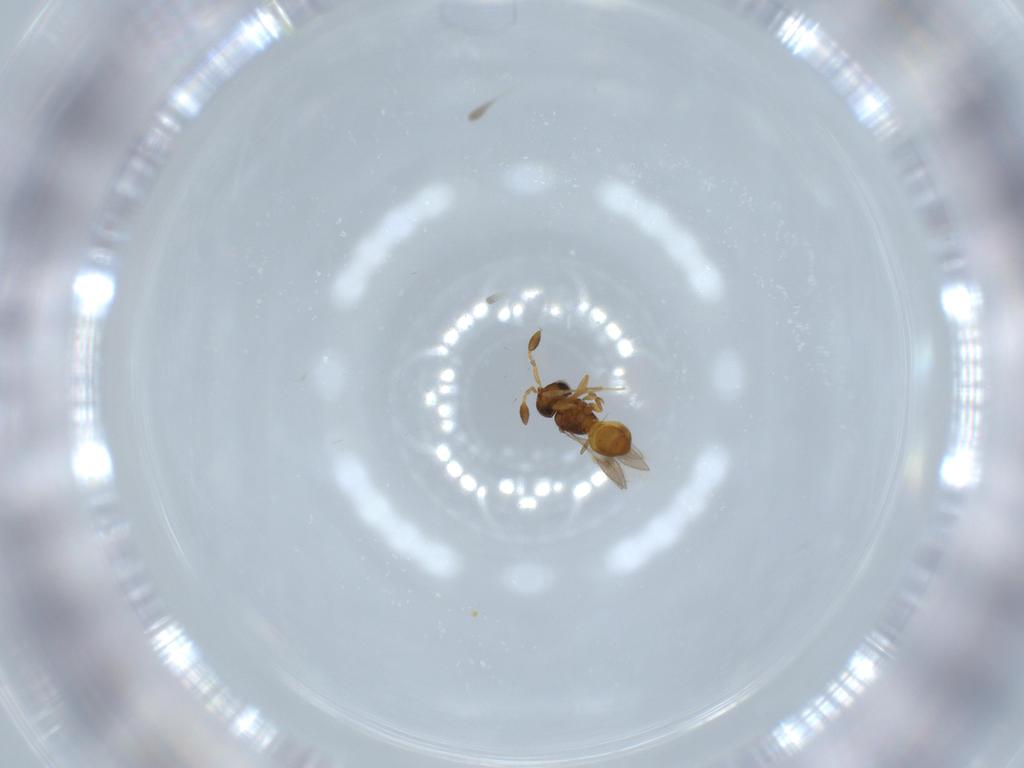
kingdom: Animalia
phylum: Arthropoda
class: Insecta
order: Hymenoptera
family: Scelionidae
